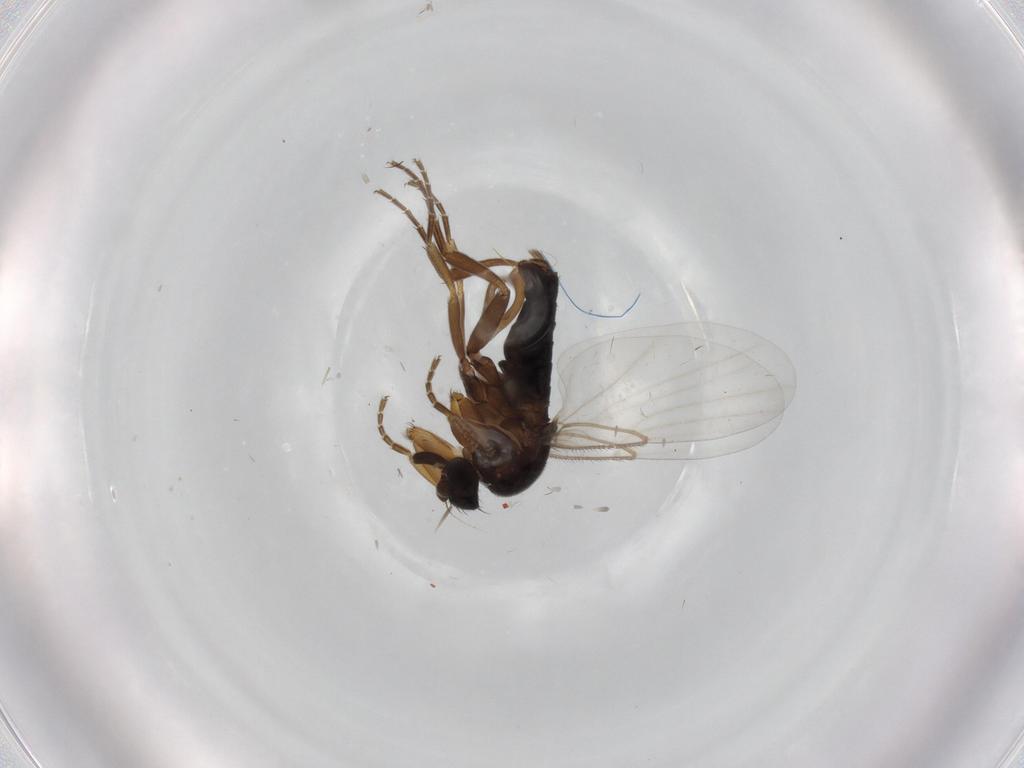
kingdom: Animalia
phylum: Arthropoda
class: Insecta
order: Diptera
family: Phoridae
